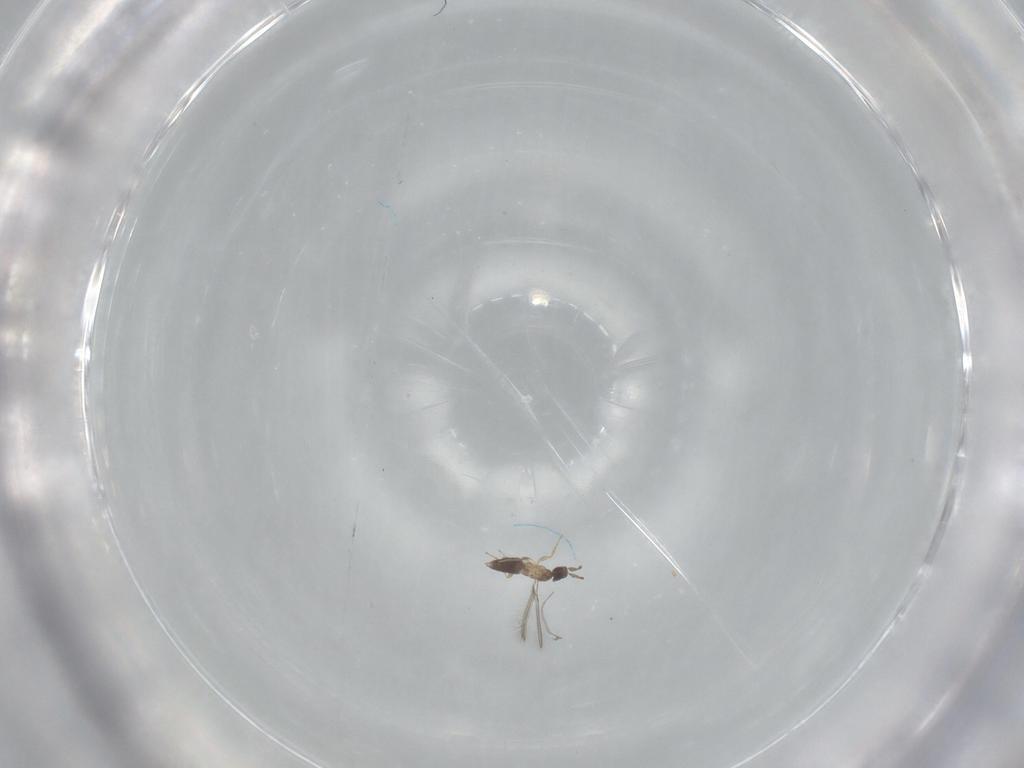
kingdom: Animalia
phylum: Arthropoda
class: Insecta
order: Hymenoptera
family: Mymaridae
